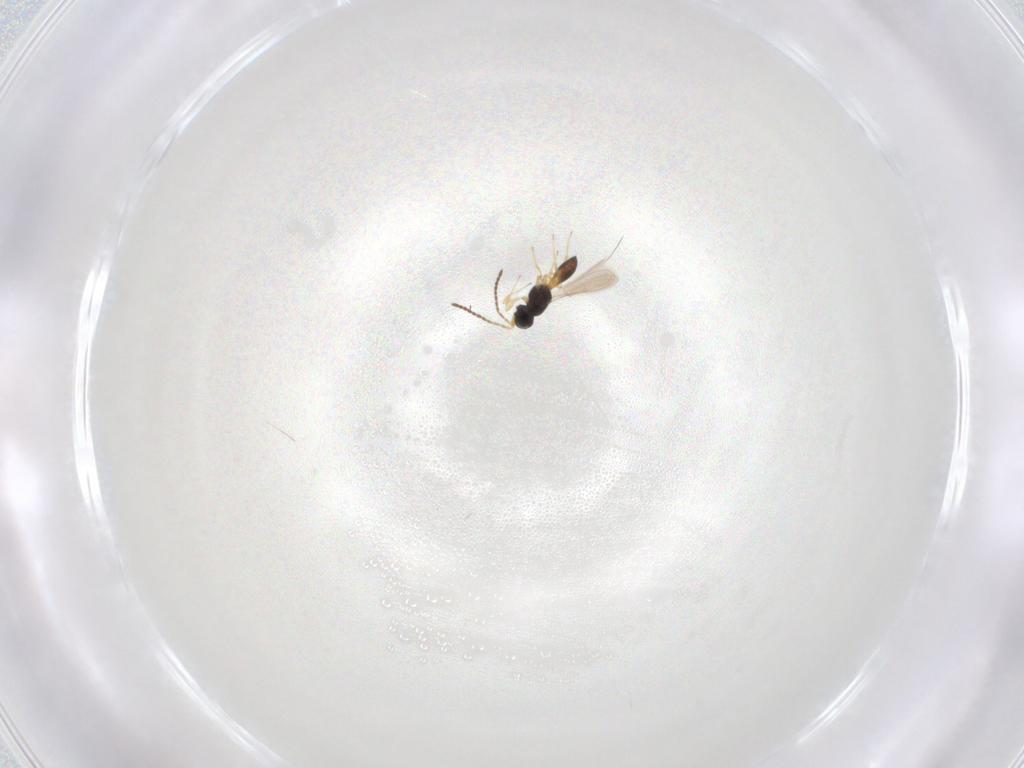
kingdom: Animalia
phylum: Arthropoda
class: Insecta
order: Hymenoptera
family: Scelionidae
